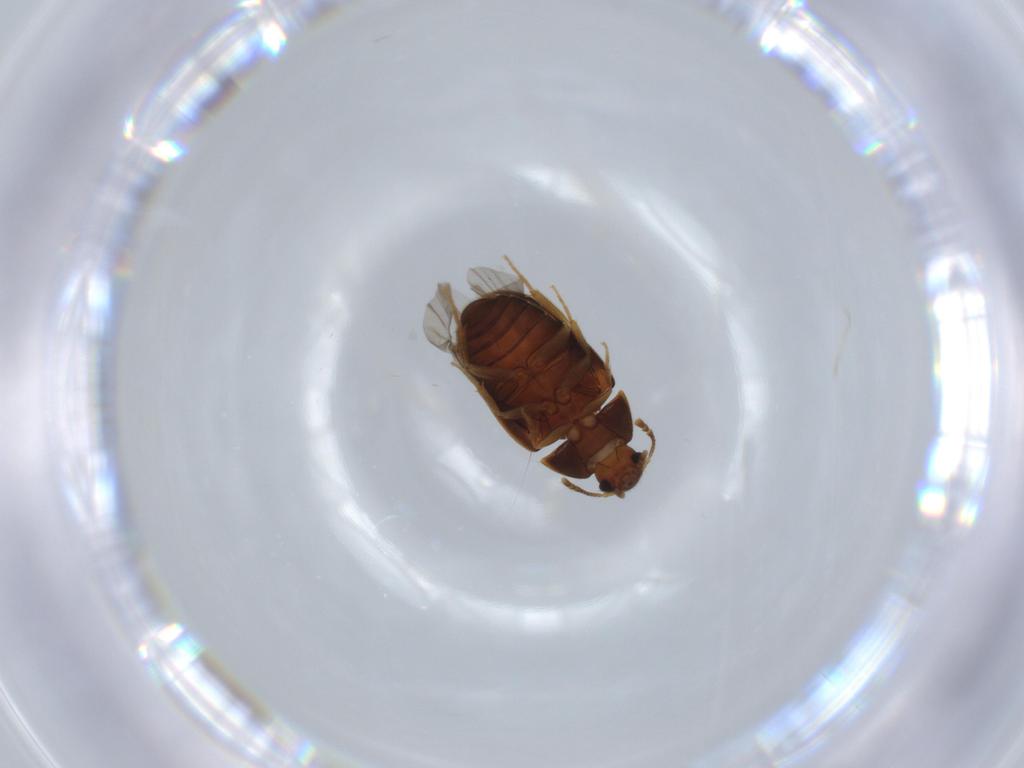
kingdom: Animalia
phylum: Arthropoda
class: Insecta
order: Coleoptera
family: Mycetophagidae
